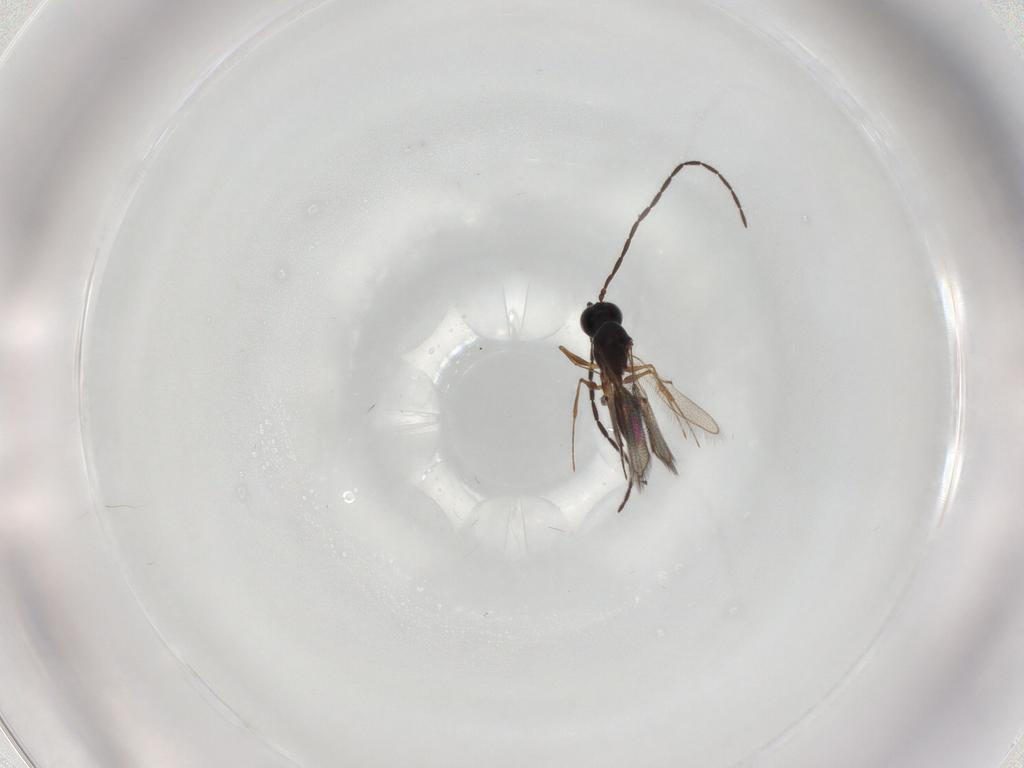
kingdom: Animalia
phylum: Arthropoda
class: Insecta
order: Hymenoptera
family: Figitidae
